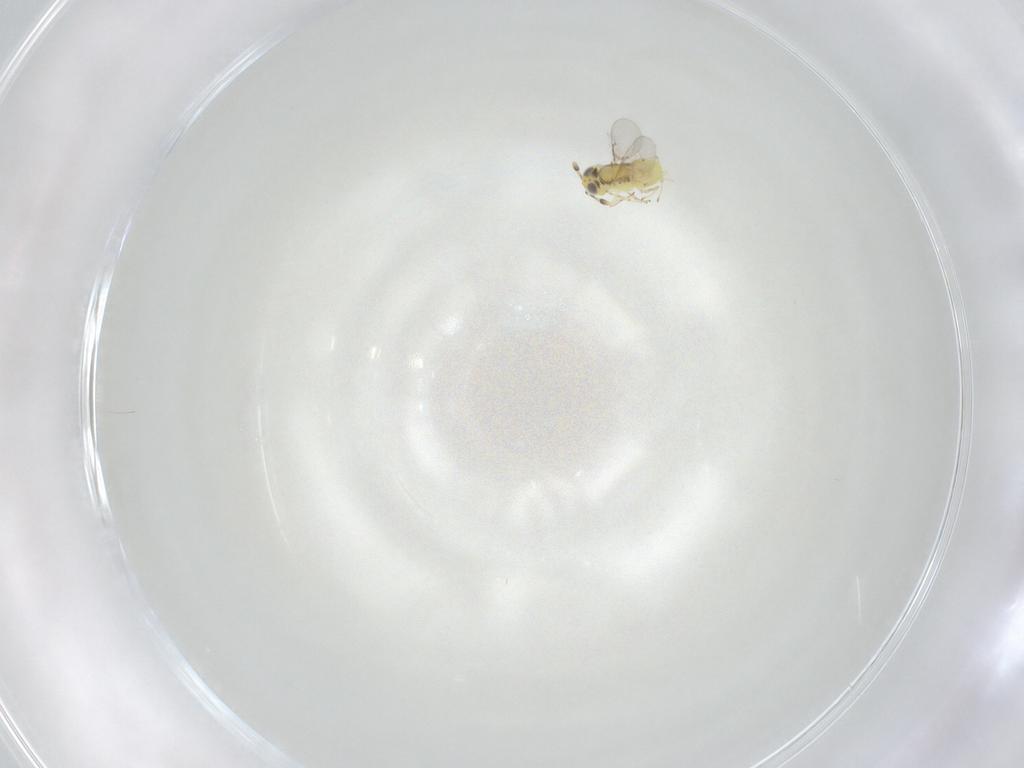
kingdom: Animalia
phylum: Arthropoda
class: Insecta
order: Hymenoptera
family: Encyrtidae
